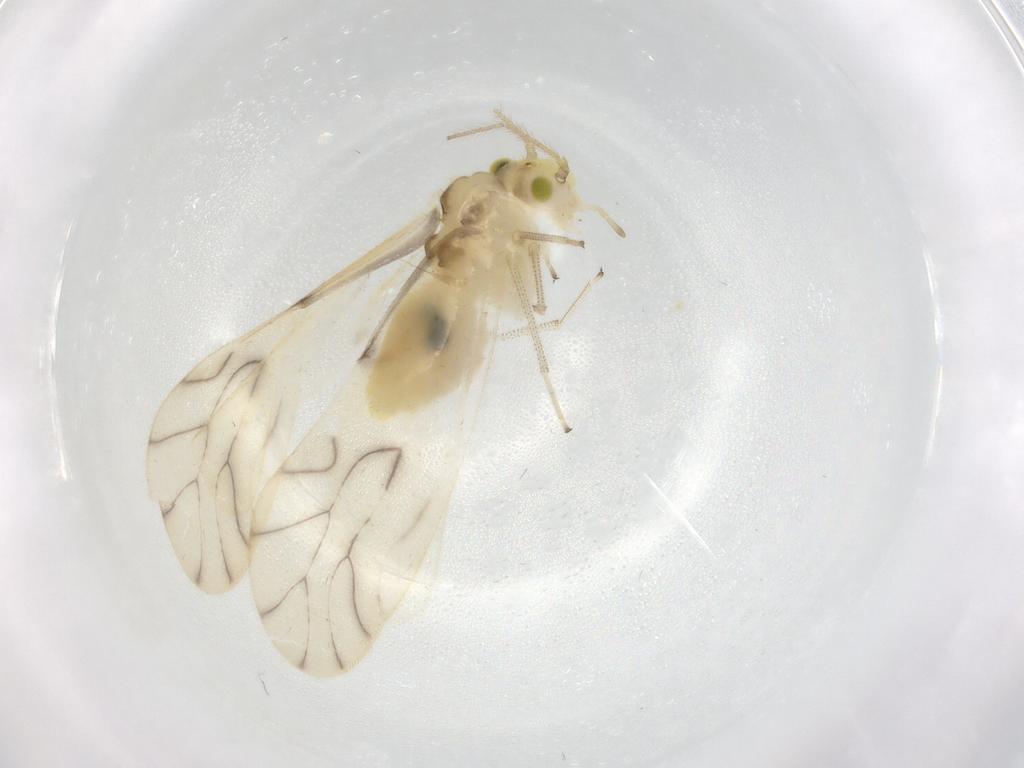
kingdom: Animalia
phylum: Arthropoda
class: Insecta
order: Psocodea
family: Caeciliusidae
